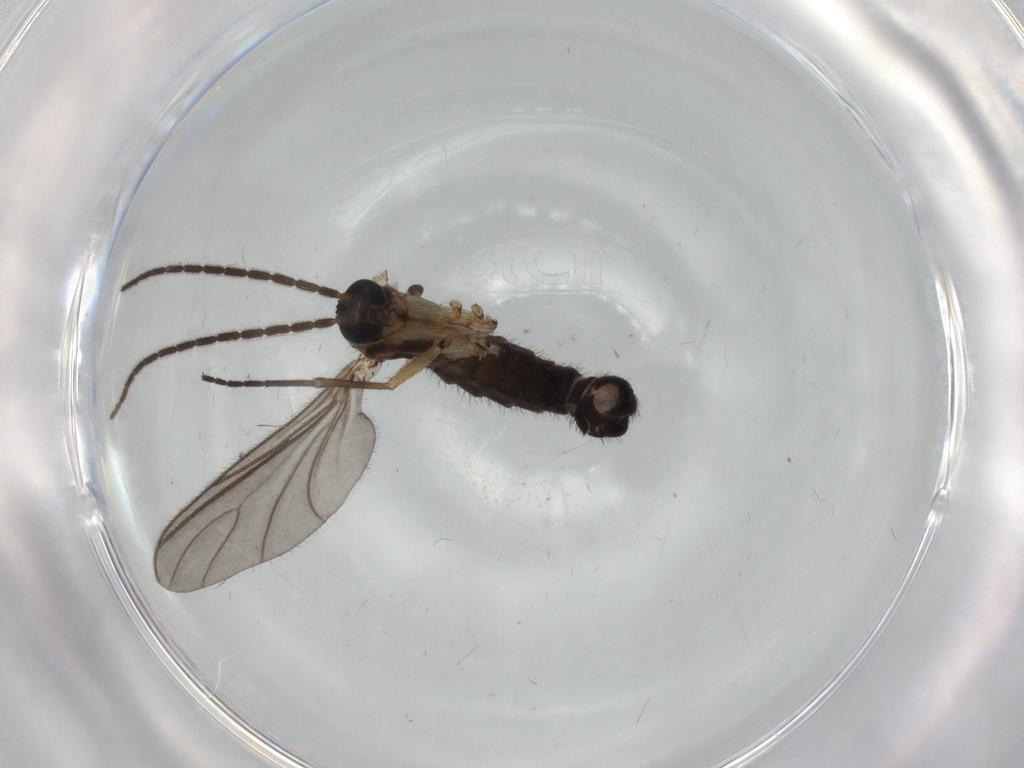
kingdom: Animalia
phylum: Arthropoda
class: Insecta
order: Diptera
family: Sciaridae
